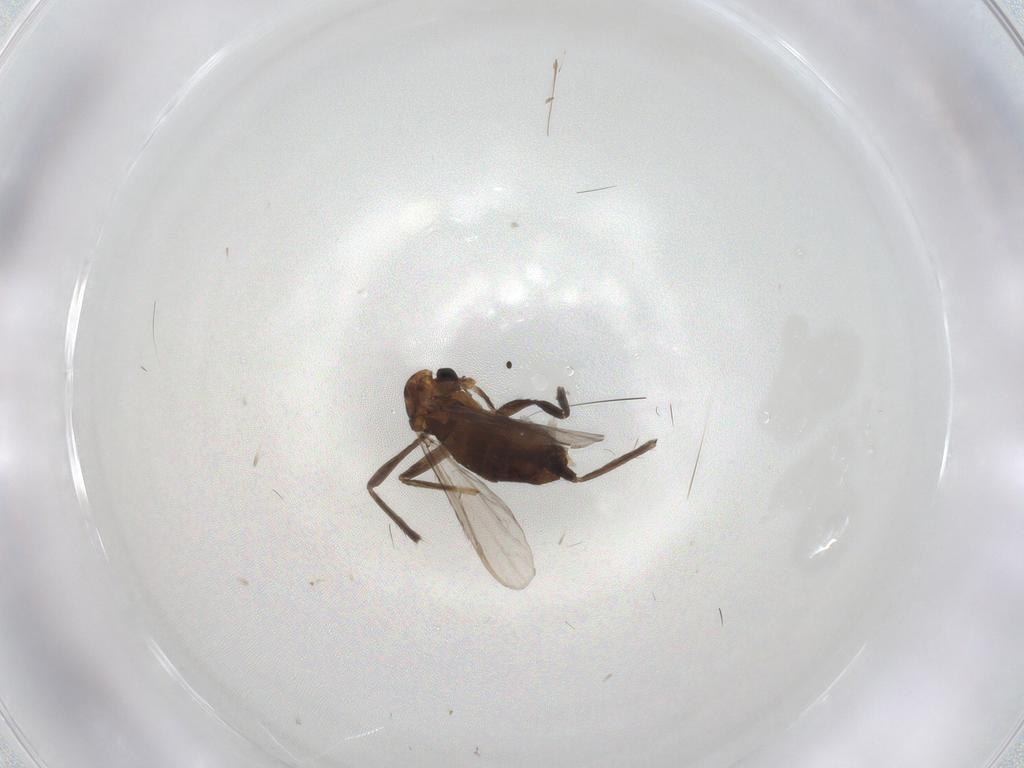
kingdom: Animalia
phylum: Arthropoda
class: Insecta
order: Diptera
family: Chironomidae
